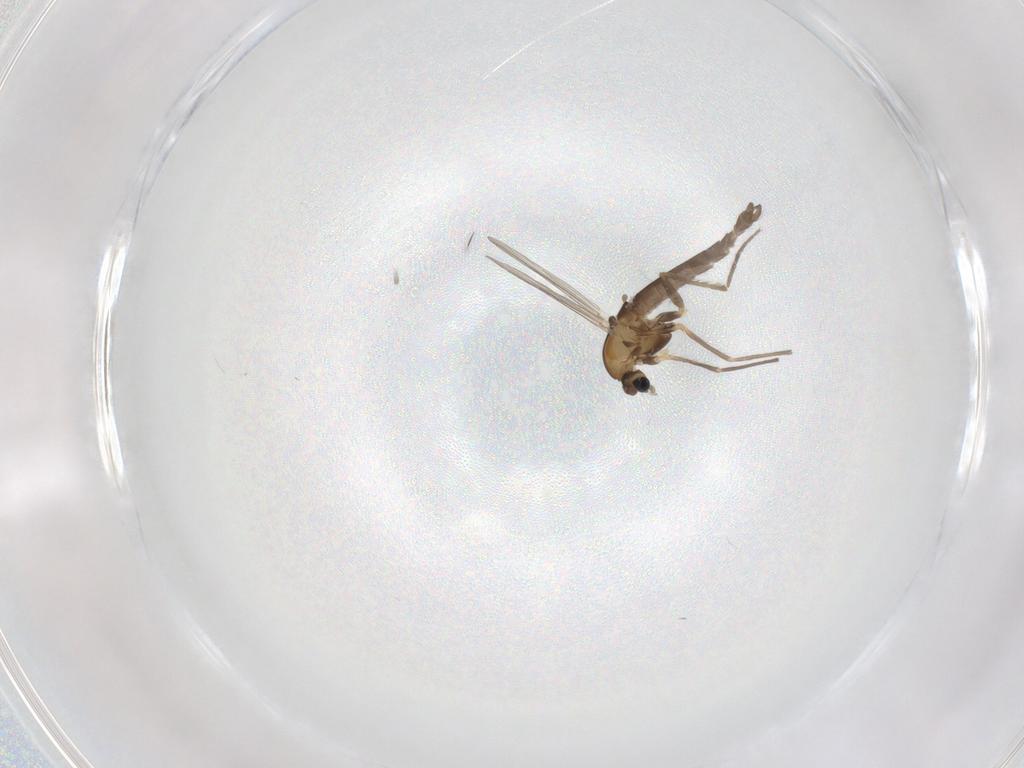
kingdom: Animalia
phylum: Arthropoda
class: Insecta
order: Diptera
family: Chironomidae
